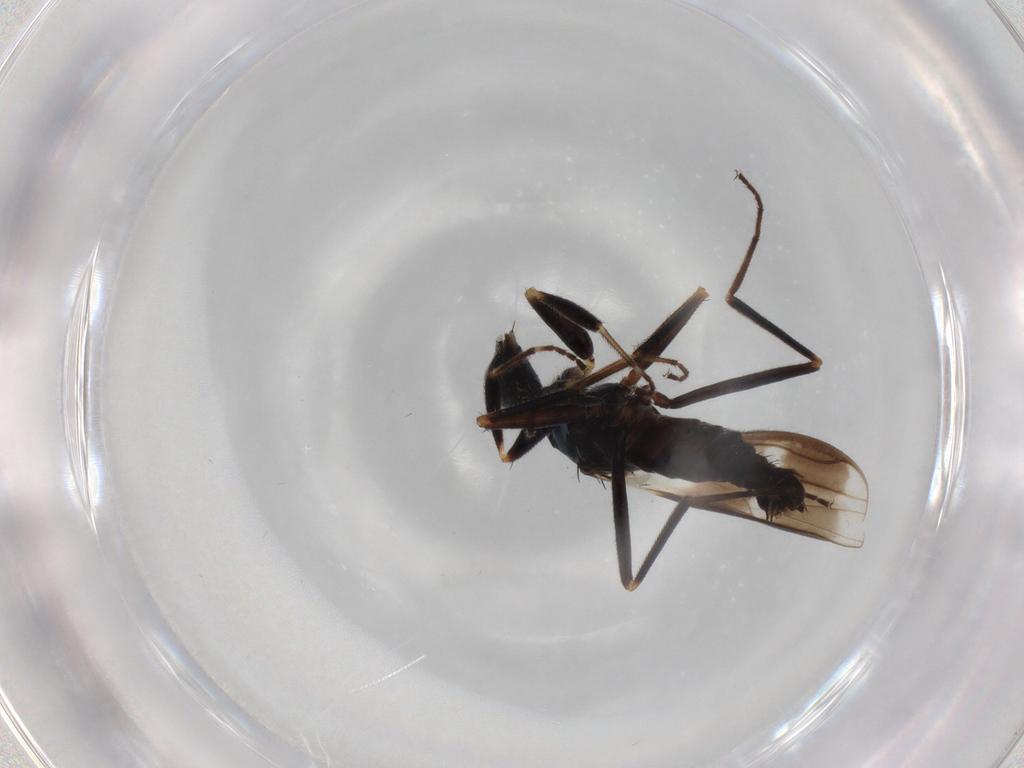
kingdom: Animalia
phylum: Arthropoda
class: Insecta
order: Diptera
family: Hybotidae
